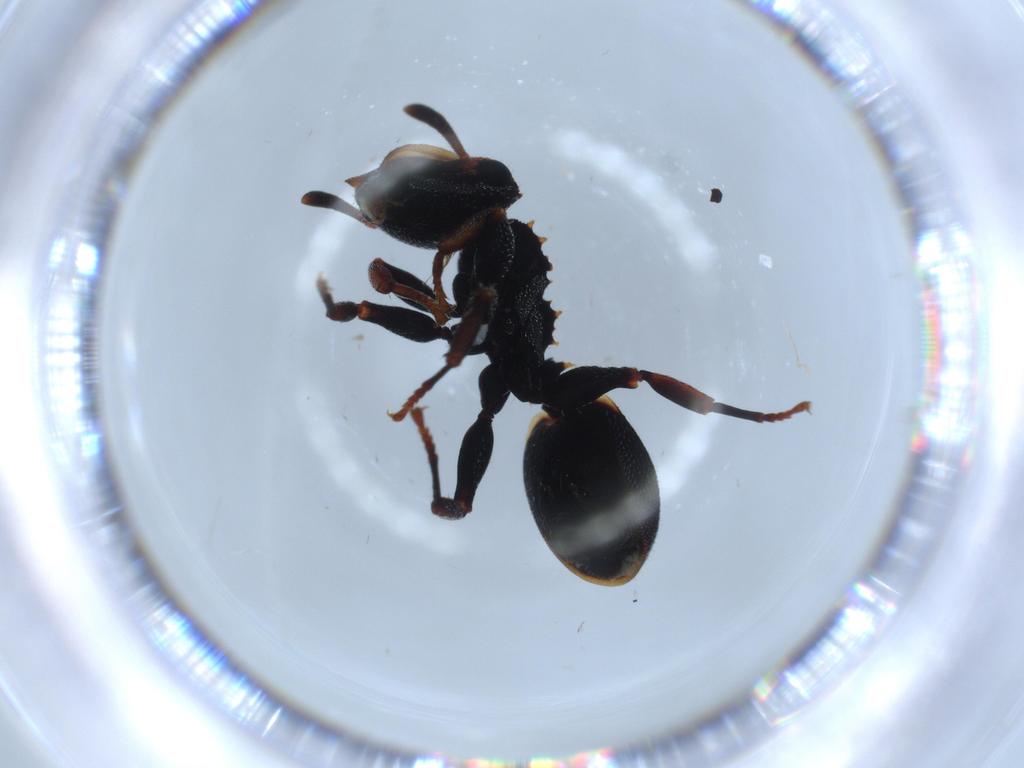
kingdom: Animalia
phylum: Arthropoda
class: Insecta
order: Hymenoptera
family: Formicidae
